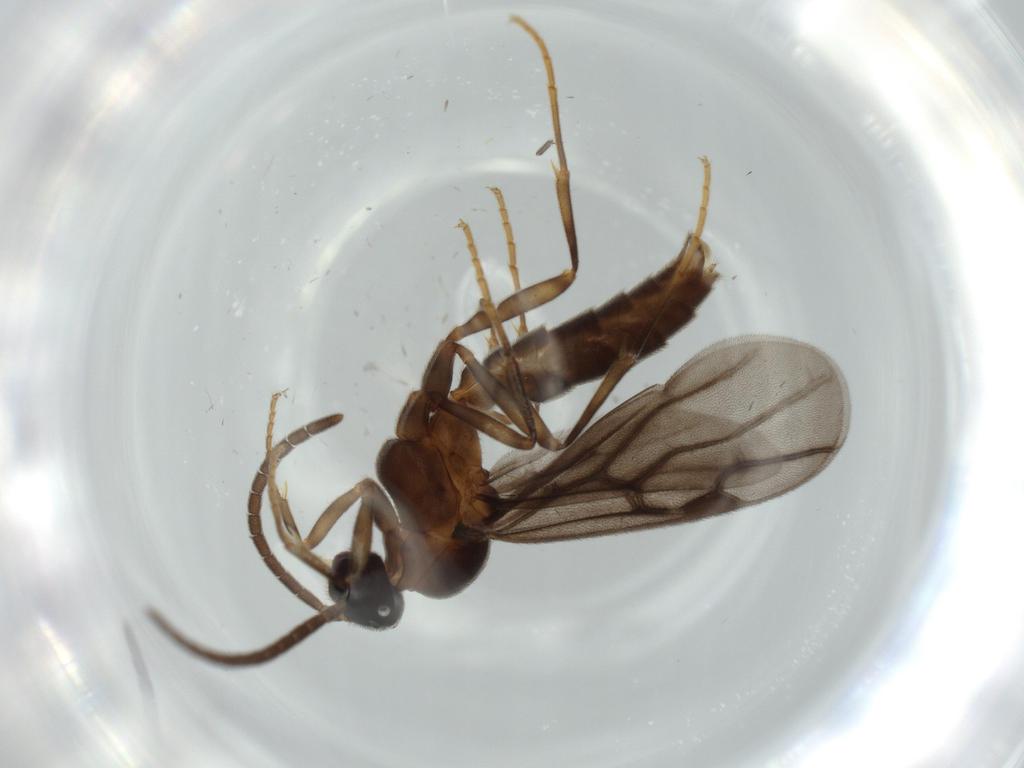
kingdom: Animalia
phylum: Arthropoda
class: Insecta
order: Hymenoptera
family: Formicidae
